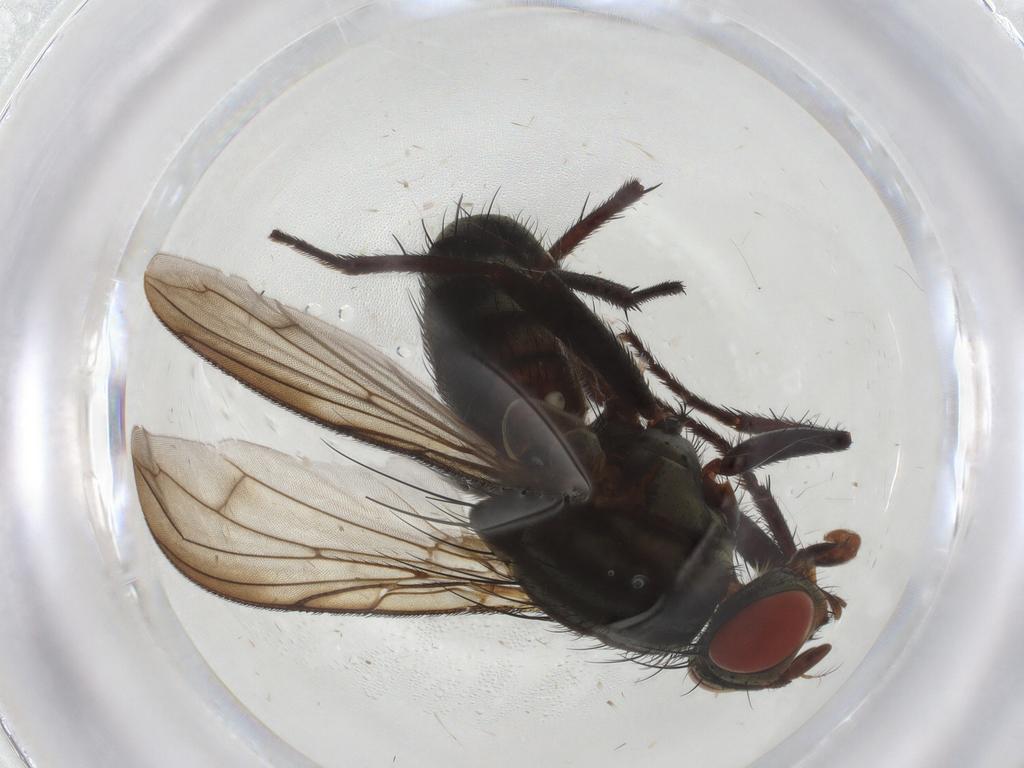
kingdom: Animalia
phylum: Arthropoda
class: Insecta
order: Diptera
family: Sarcophagidae
